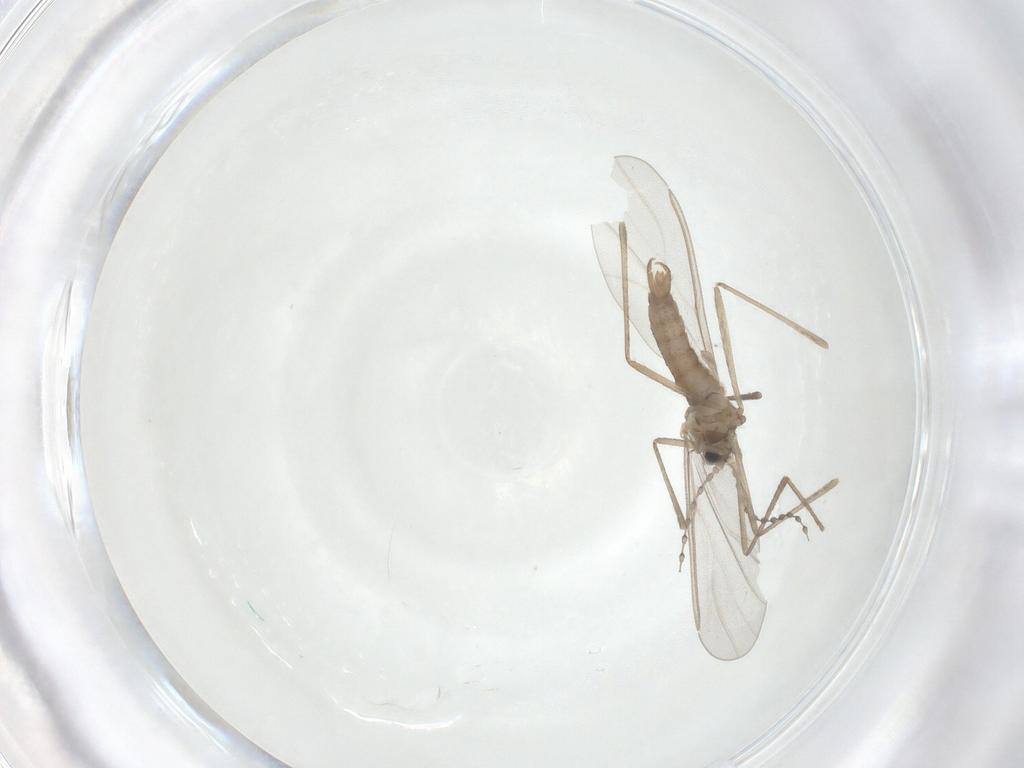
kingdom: Animalia
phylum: Arthropoda
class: Insecta
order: Diptera
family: Cecidomyiidae
